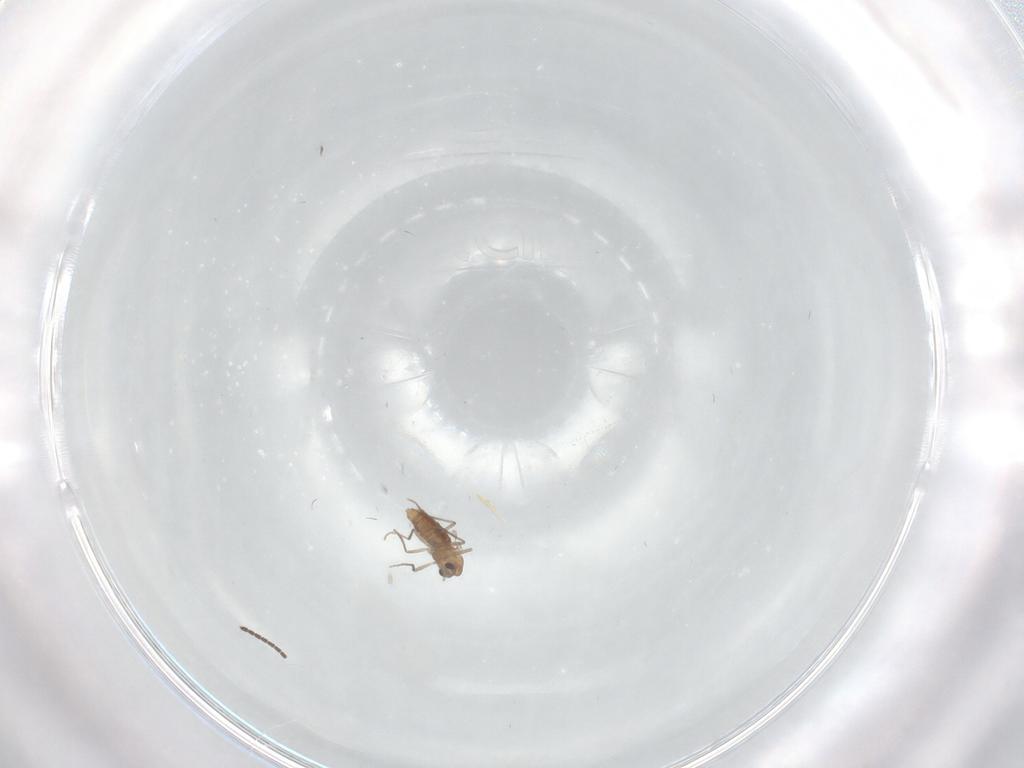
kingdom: Animalia
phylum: Arthropoda
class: Insecta
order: Diptera
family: Chironomidae
